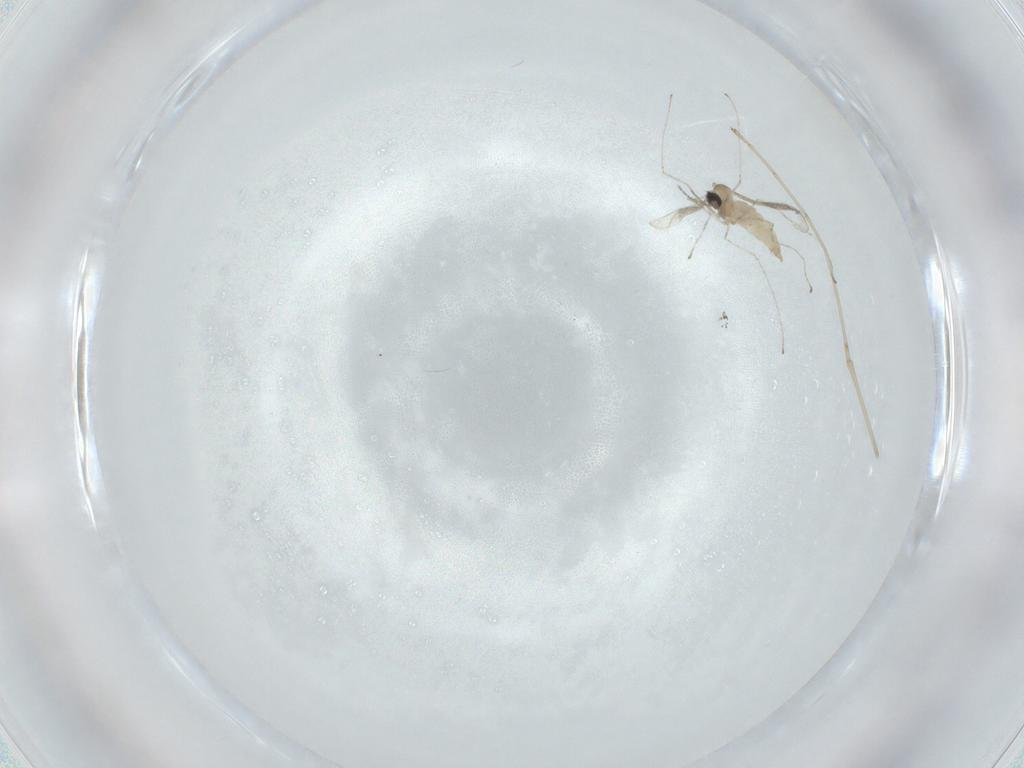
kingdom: Animalia
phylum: Arthropoda
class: Insecta
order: Diptera
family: Cecidomyiidae
